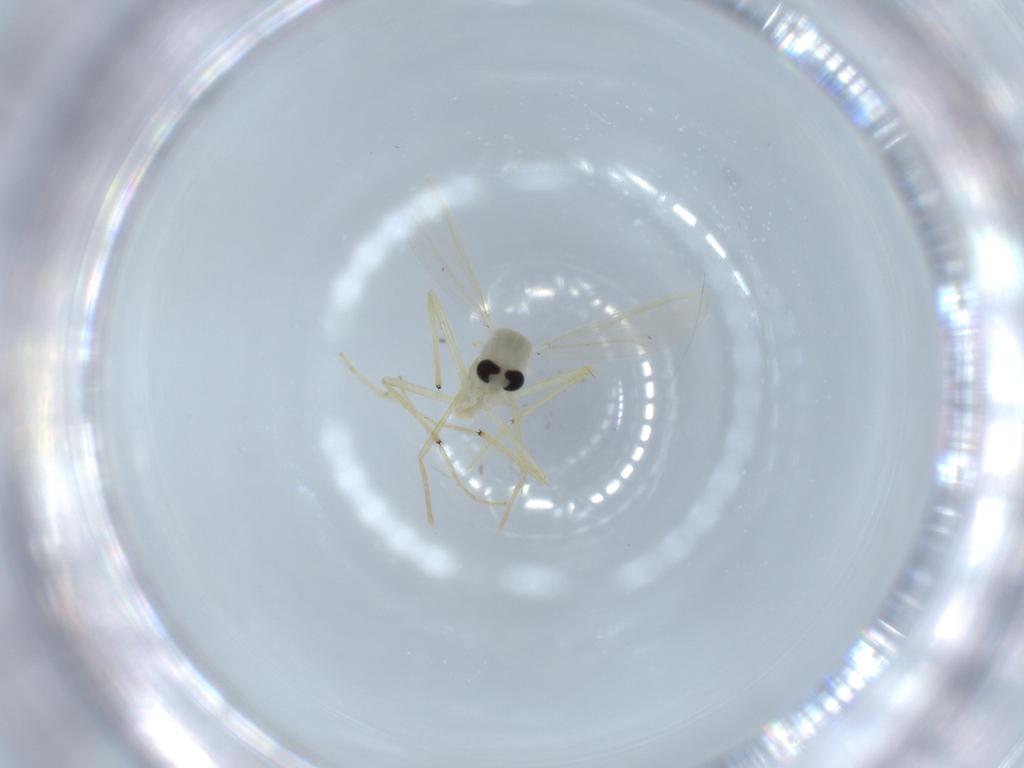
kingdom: Animalia
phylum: Arthropoda
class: Insecta
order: Diptera
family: Chironomidae
